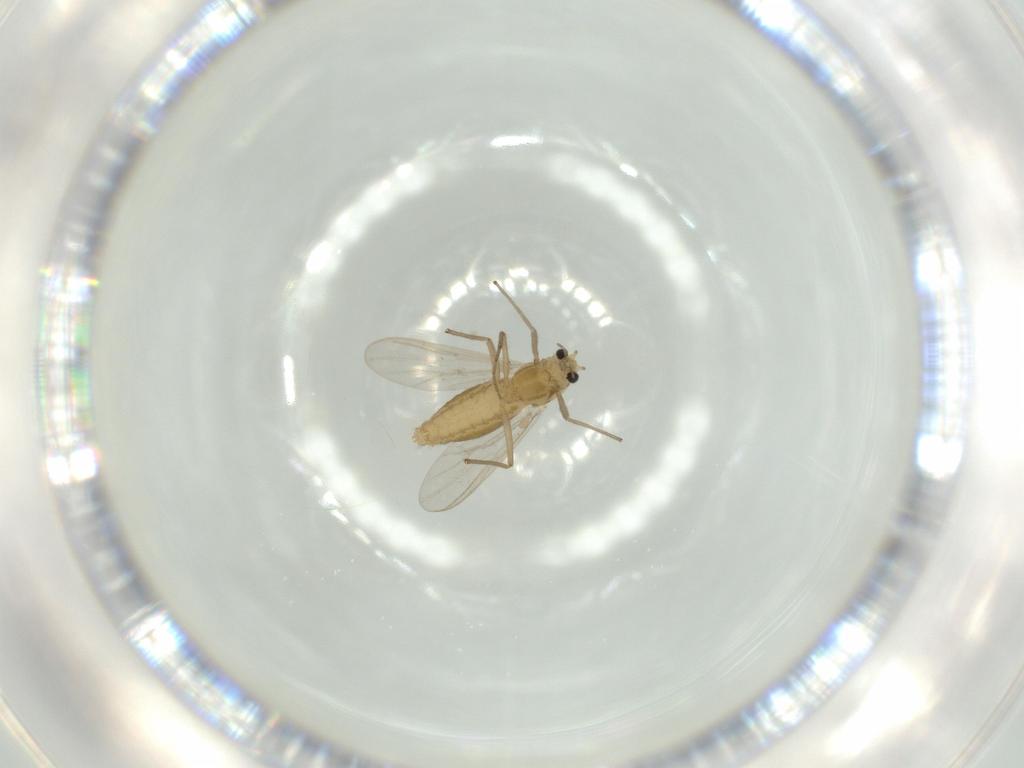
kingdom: Animalia
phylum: Arthropoda
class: Insecta
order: Diptera
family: Chironomidae
